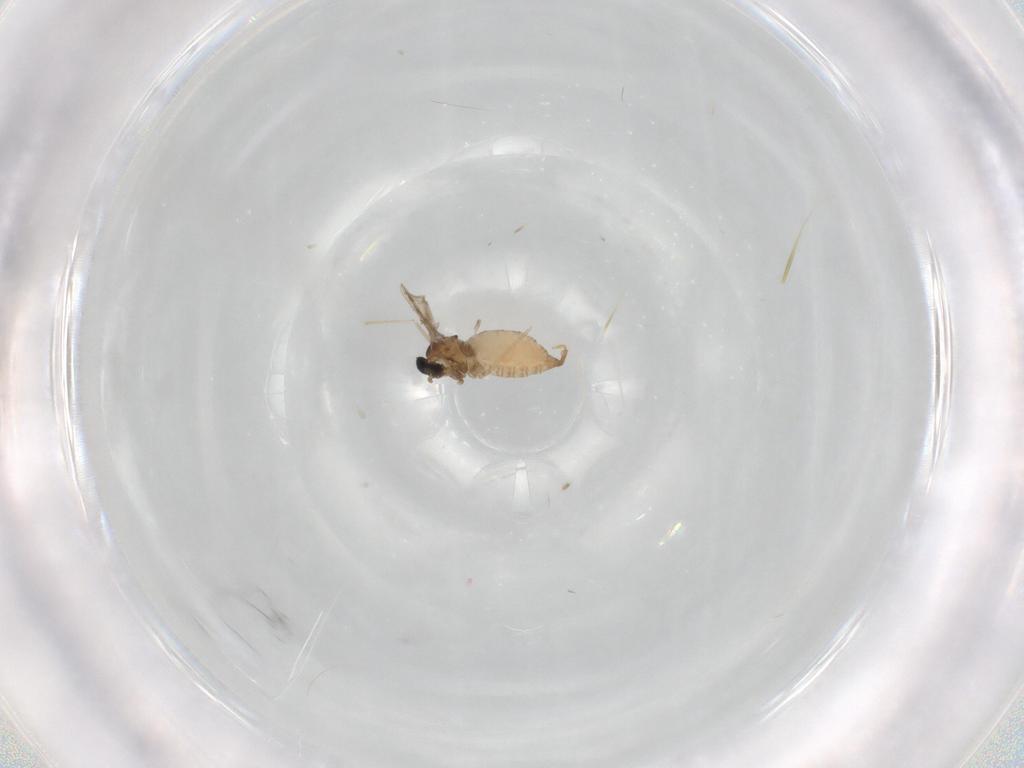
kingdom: Animalia
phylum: Arthropoda
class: Insecta
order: Diptera
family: Cecidomyiidae
